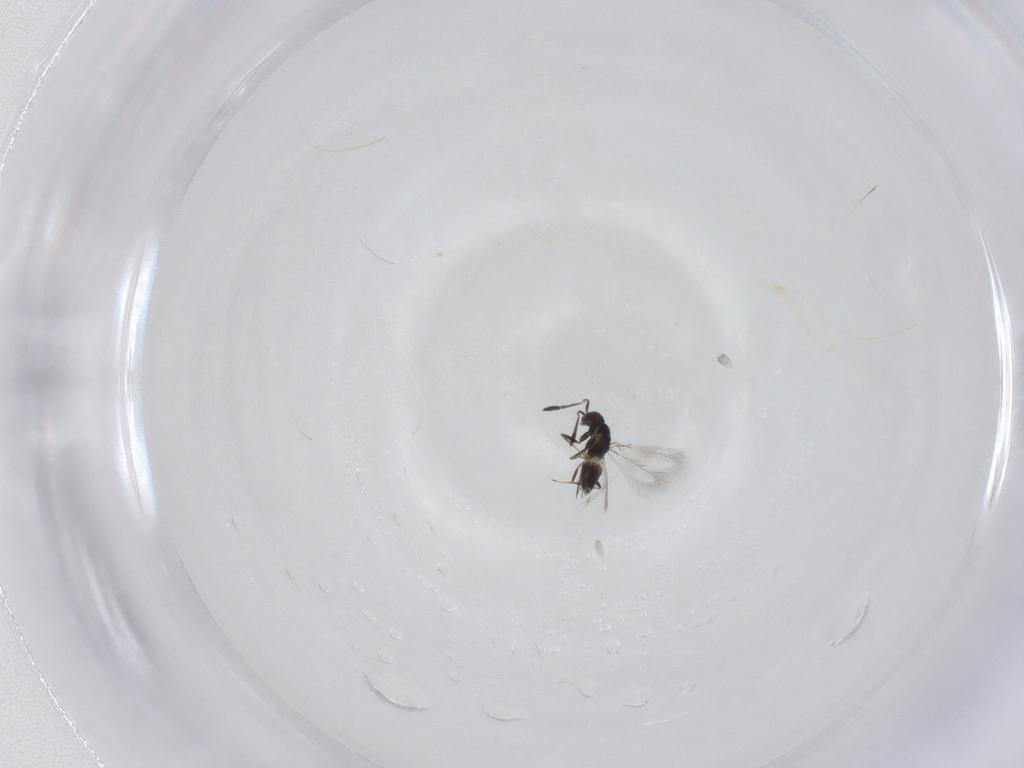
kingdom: Animalia
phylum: Arthropoda
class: Insecta
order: Hymenoptera
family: Mymaridae
